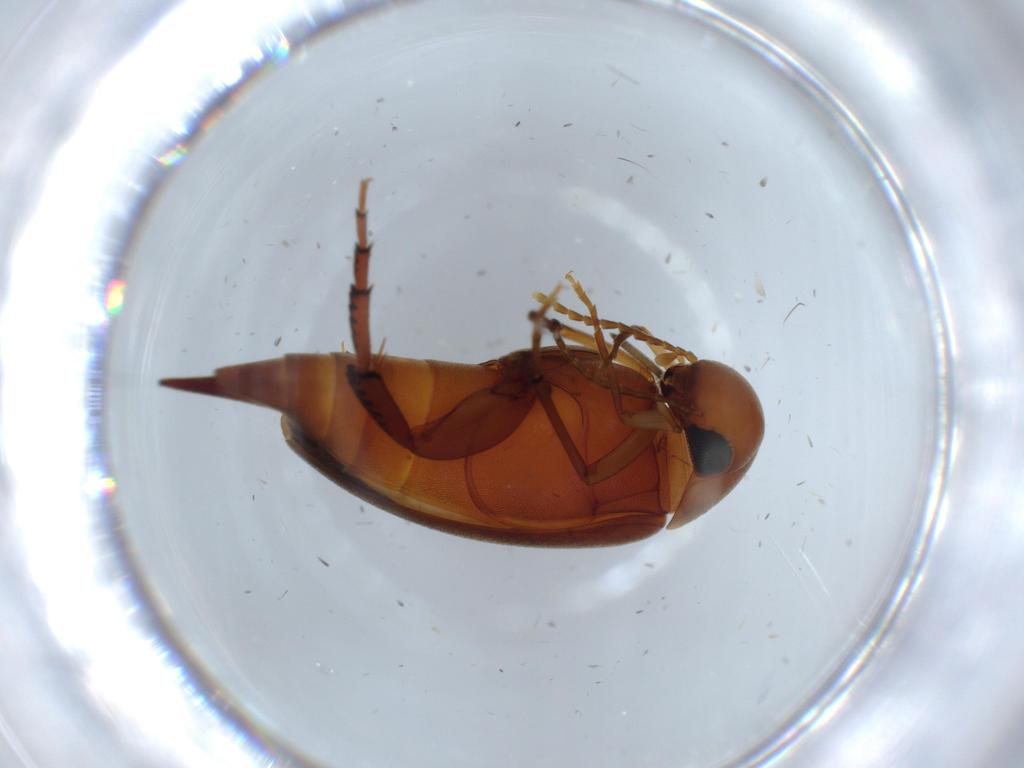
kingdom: Animalia
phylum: Arthropoda
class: Insecta
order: Coleoptera
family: Mordellidae
